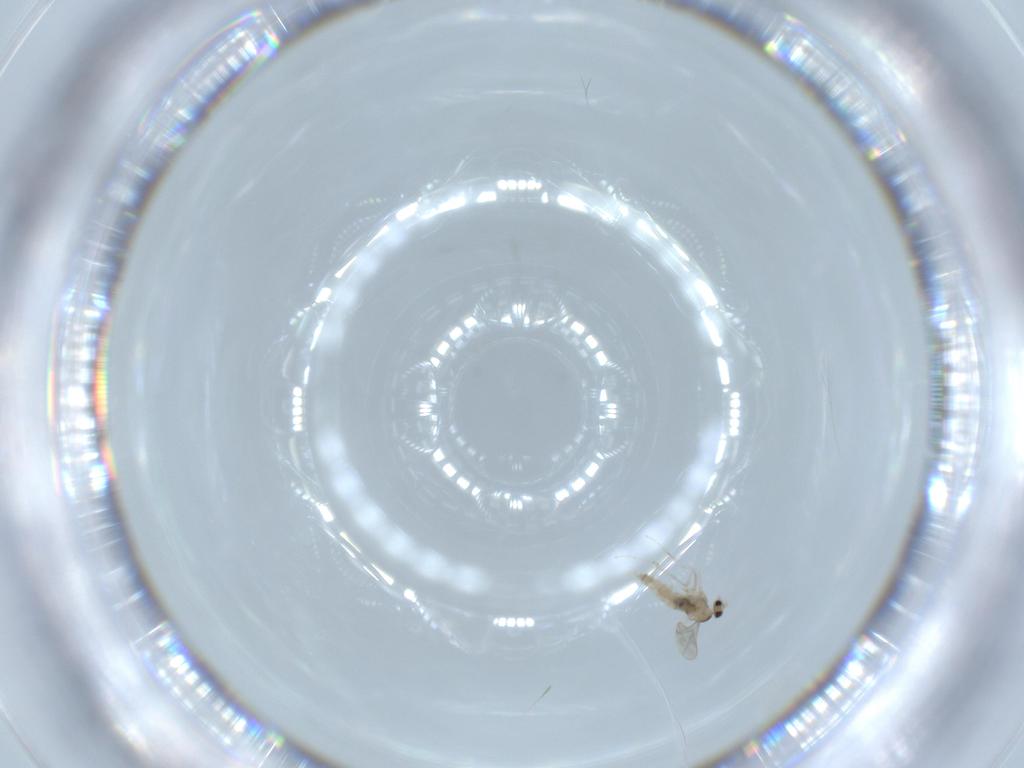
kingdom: Animalia
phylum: Arthropoda
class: Insecta
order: Diptera
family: Cecidomyiidae
